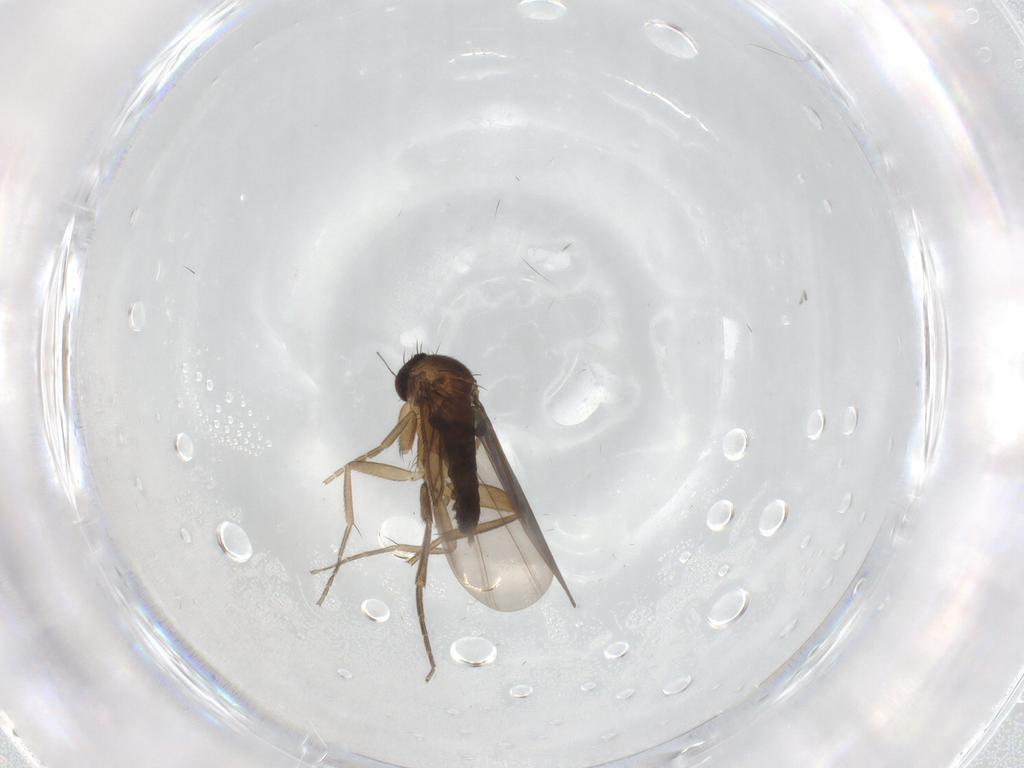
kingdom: Animalia
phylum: Arthropoda
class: Insecta
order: Diptera
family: Phoridae
